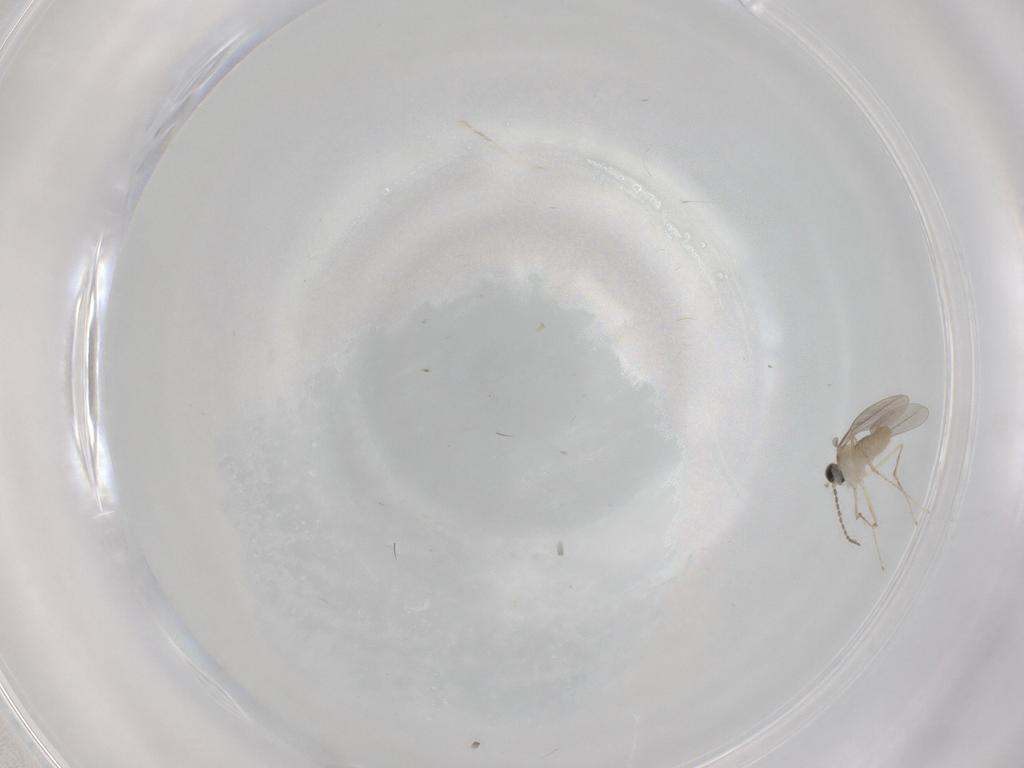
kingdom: Animalia
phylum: Arthropoda
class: Insecta
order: Diptera
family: Cecidomyiidae
